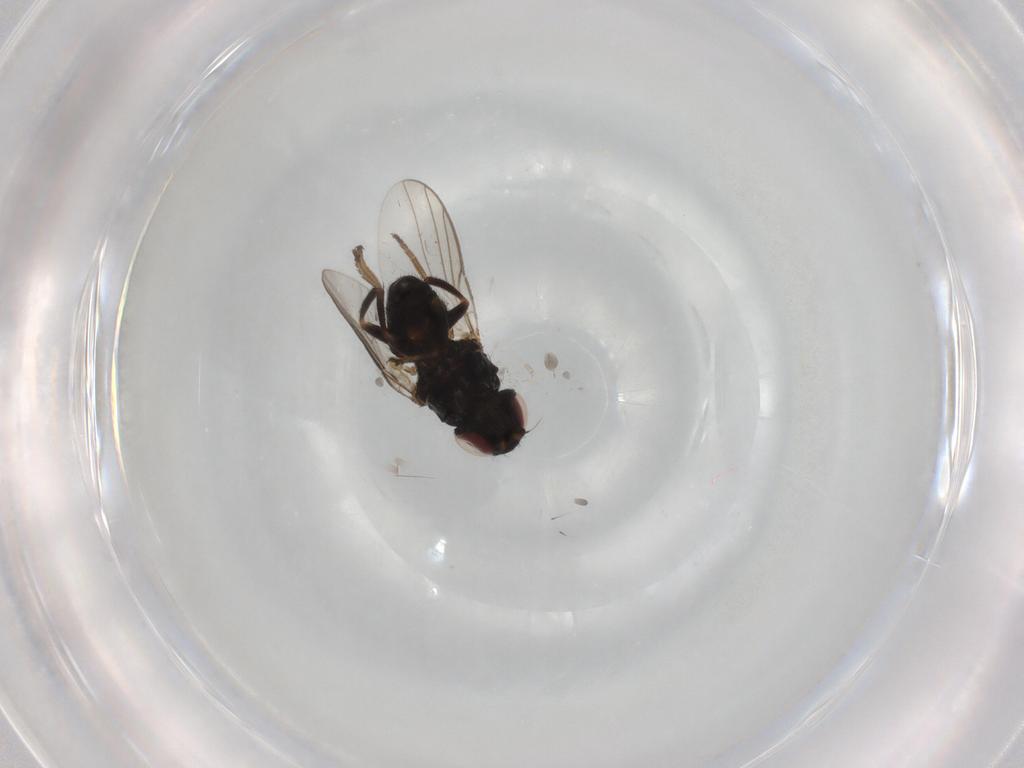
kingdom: Animalia
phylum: Arthropoda
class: Insecta
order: Diptera
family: Chloropidae
